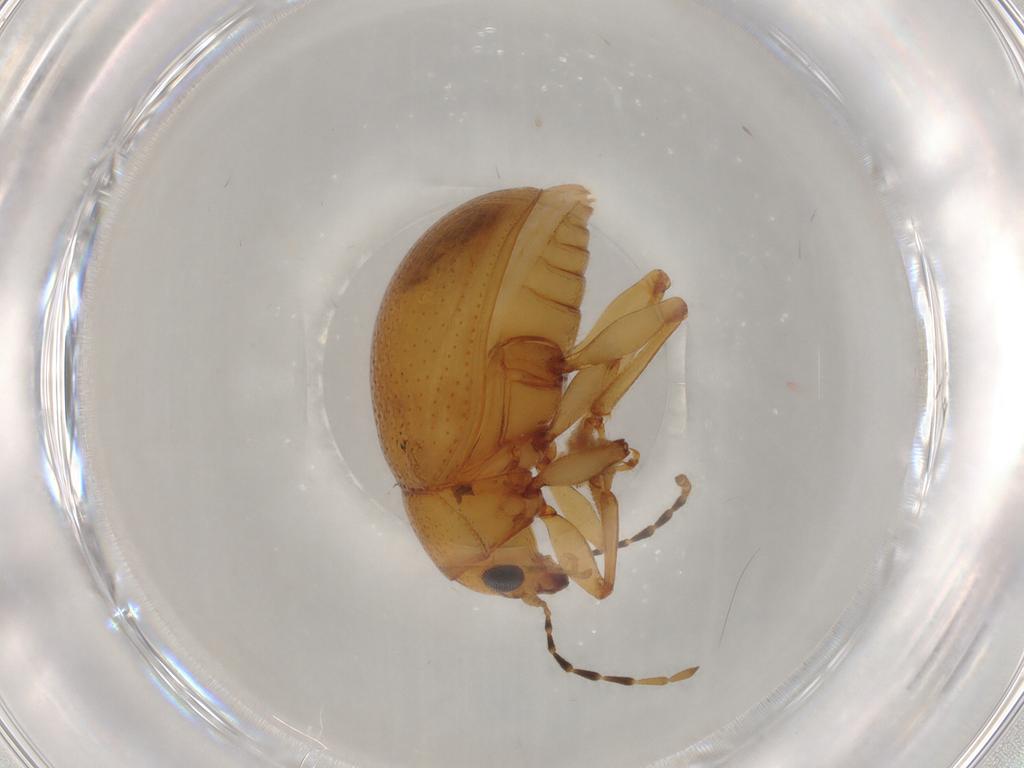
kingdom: Animalia
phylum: Arthropoda
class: Insecta
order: Coleoptera
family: Chrysomelidae
